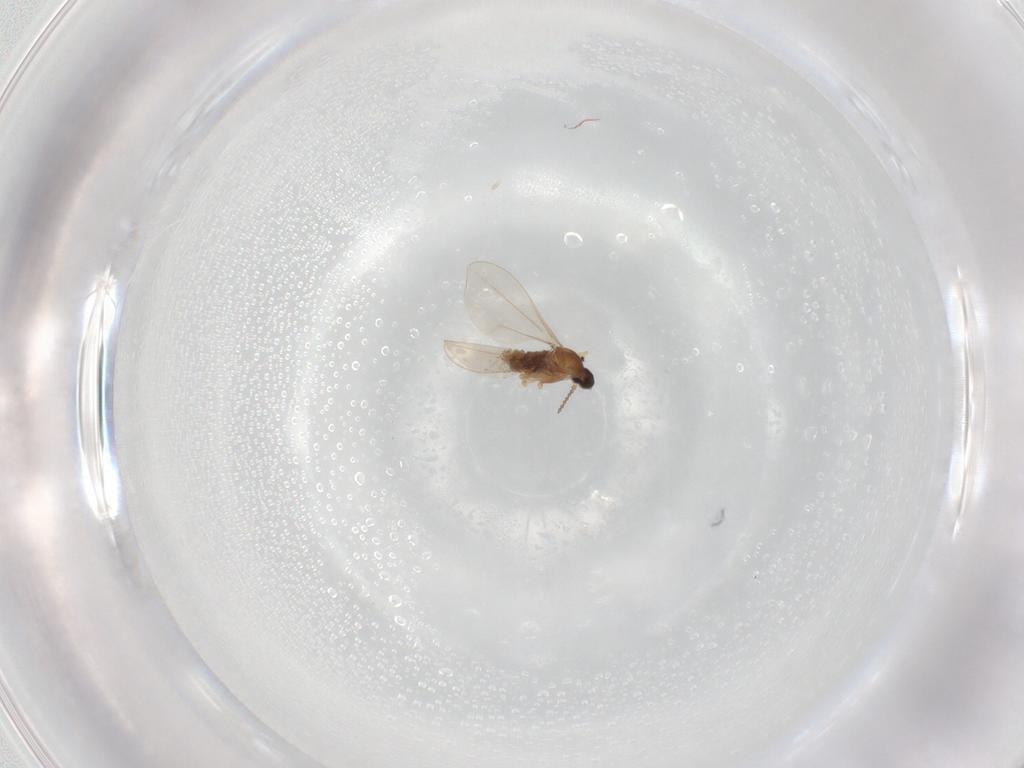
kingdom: Animalia
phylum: Arthropoda
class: Insecta
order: Diptera
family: Psychodidae
